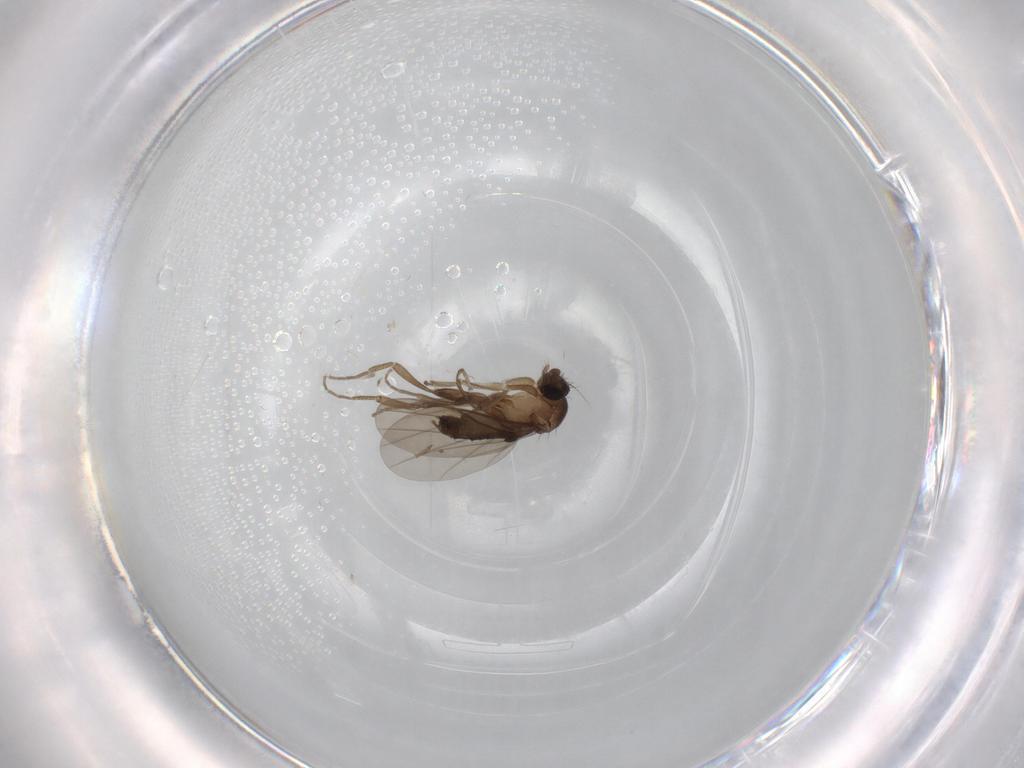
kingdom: Animalia
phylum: Arthropoda
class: Insecta
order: Diptera
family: Phoridae
